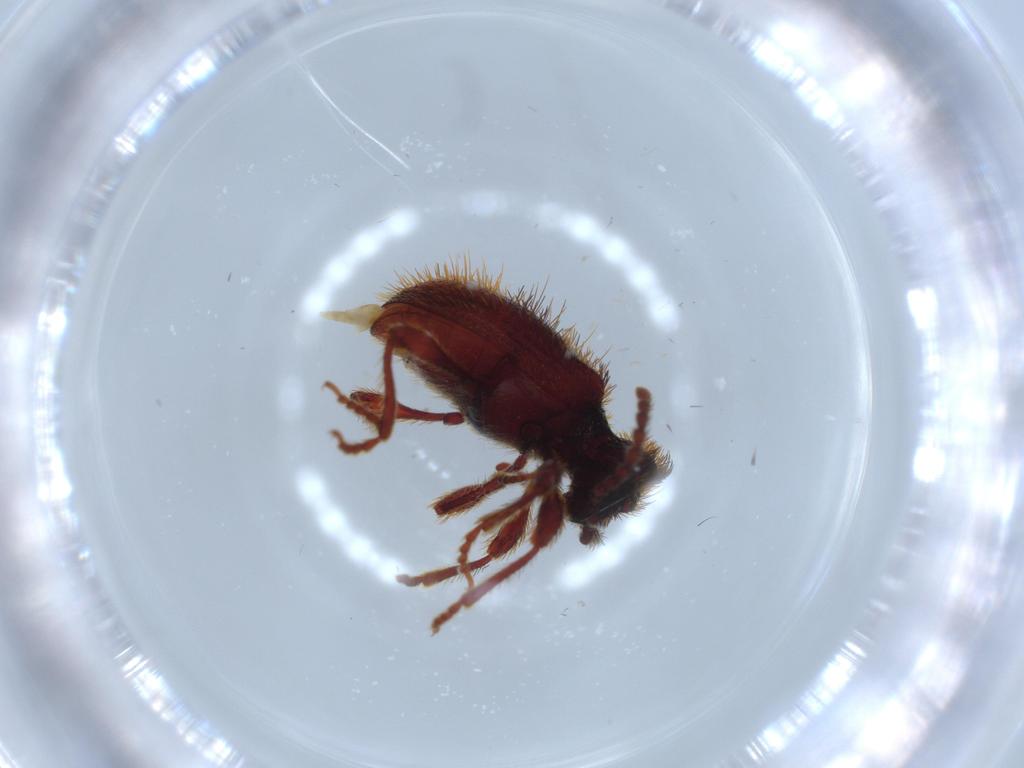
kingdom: Animalia
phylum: Arthropoda
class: Insecta
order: Coleoptera
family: Ptinidae
